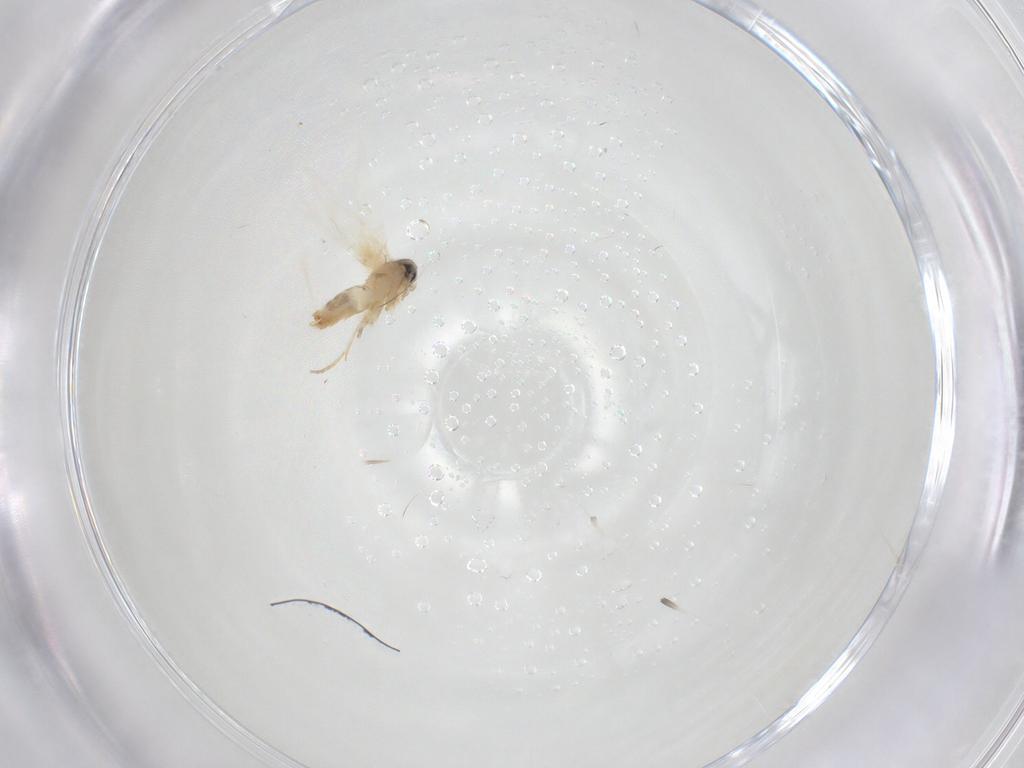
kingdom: Animalia
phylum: Arthropoda
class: Insecta
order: Lepidoptera
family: Crambidae
